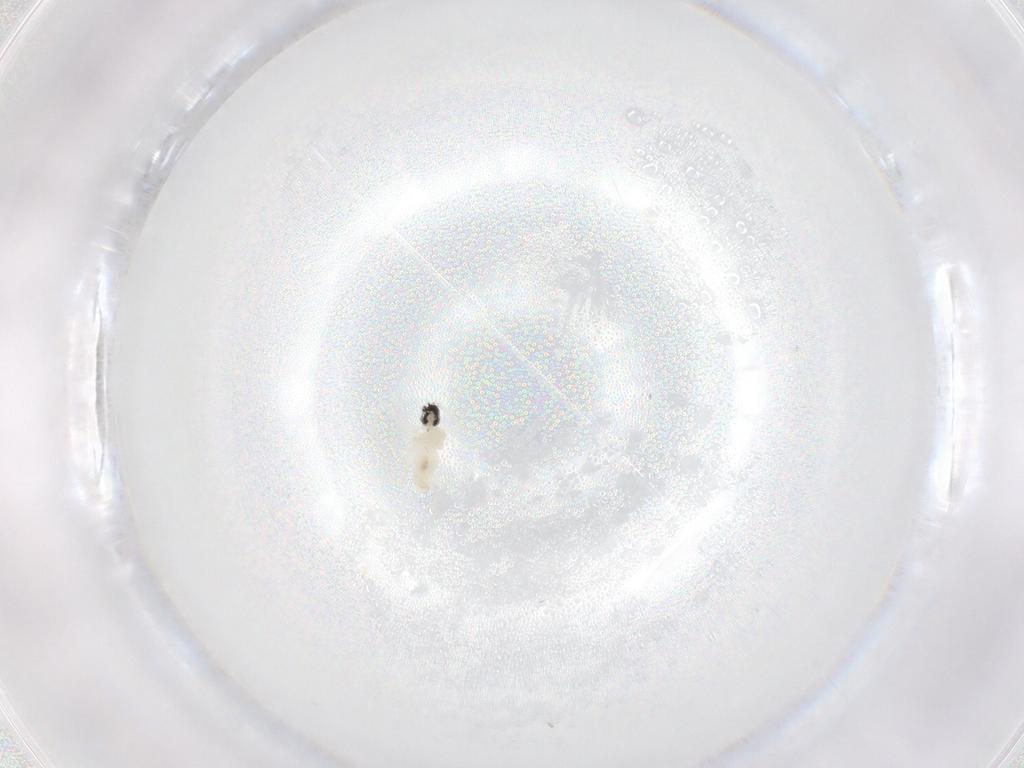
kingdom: Animalia
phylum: Arthropoda
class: Insecta
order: Diptera
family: Cecidomyiidae
